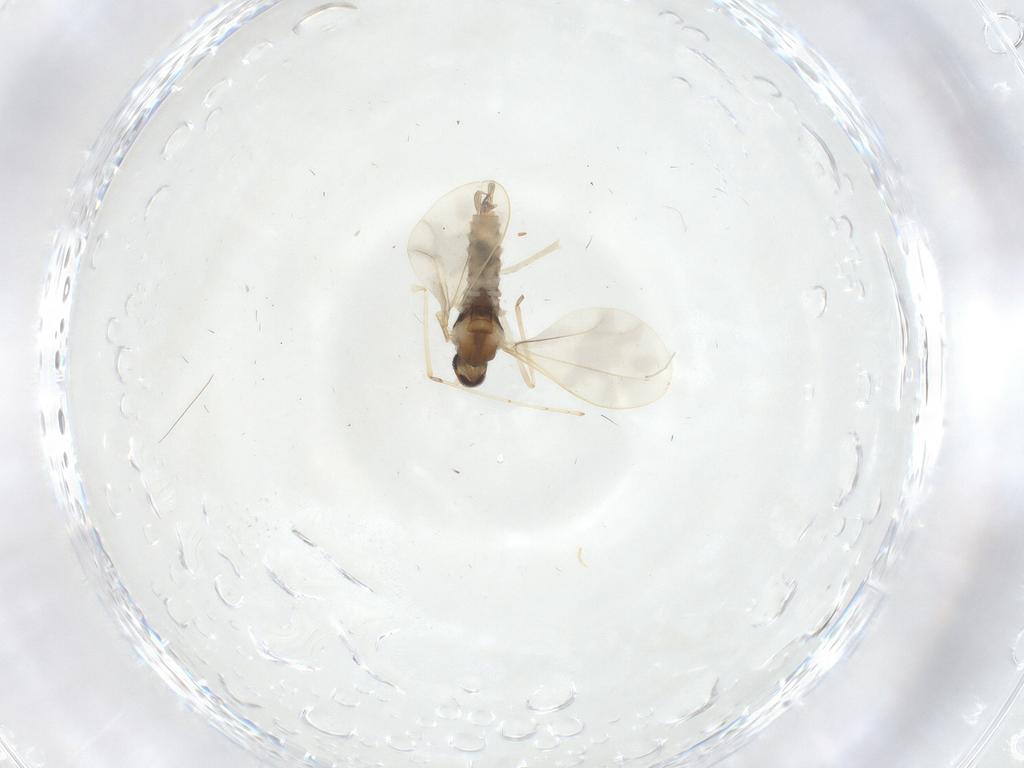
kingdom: Animalia
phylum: Arthropoda
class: Insecta
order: Diptera
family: Cecidomyiidae
